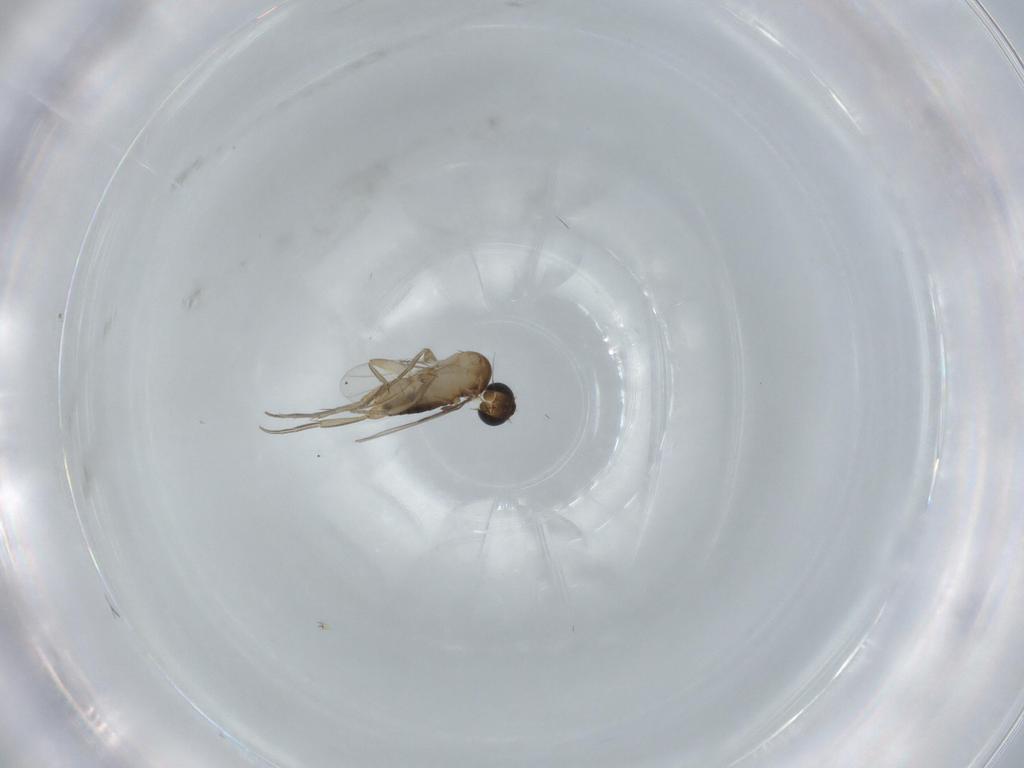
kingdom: Animalia
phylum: Arthropoda
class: Insecta
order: Diptera
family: Phoridae
